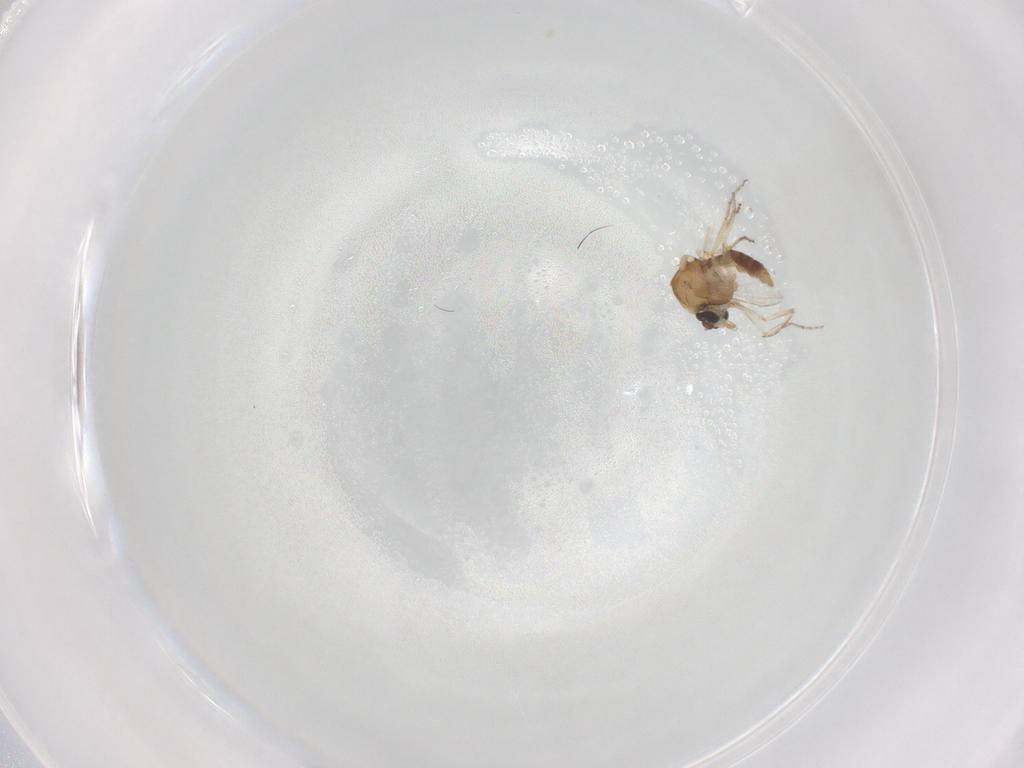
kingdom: Animalia
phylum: Arthropoda
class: Insecta
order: Diptera
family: Ceratopogonidae
